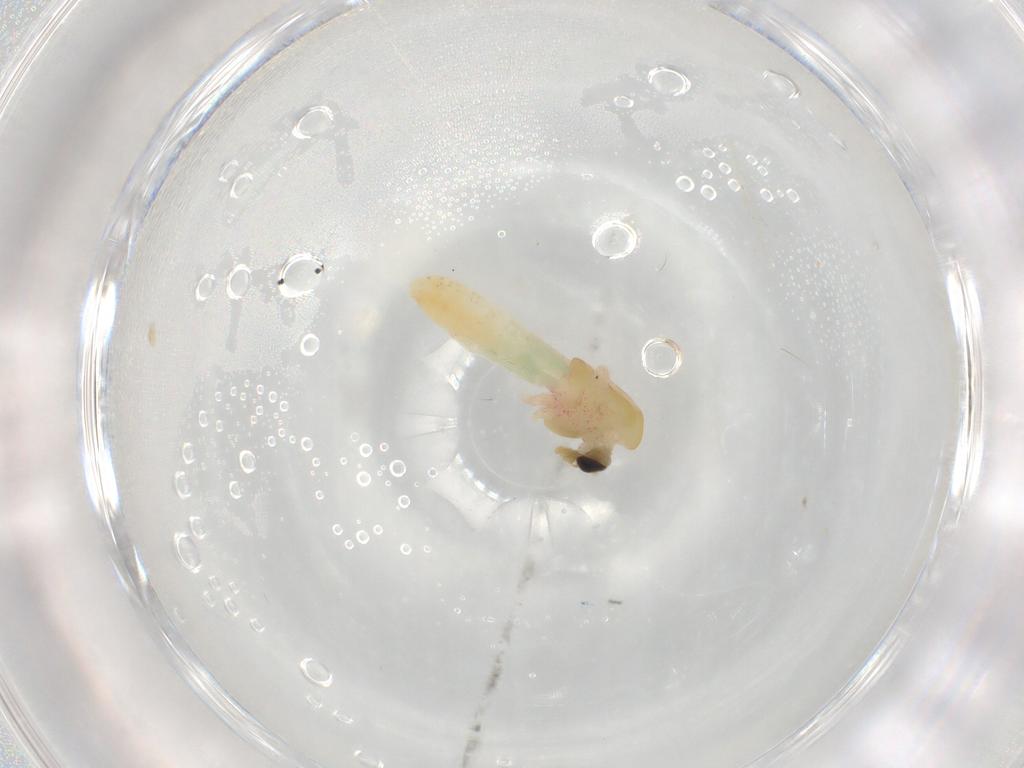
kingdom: Animalia
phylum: Arthropoda
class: Insecta
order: Diptera
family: Chironomidae
